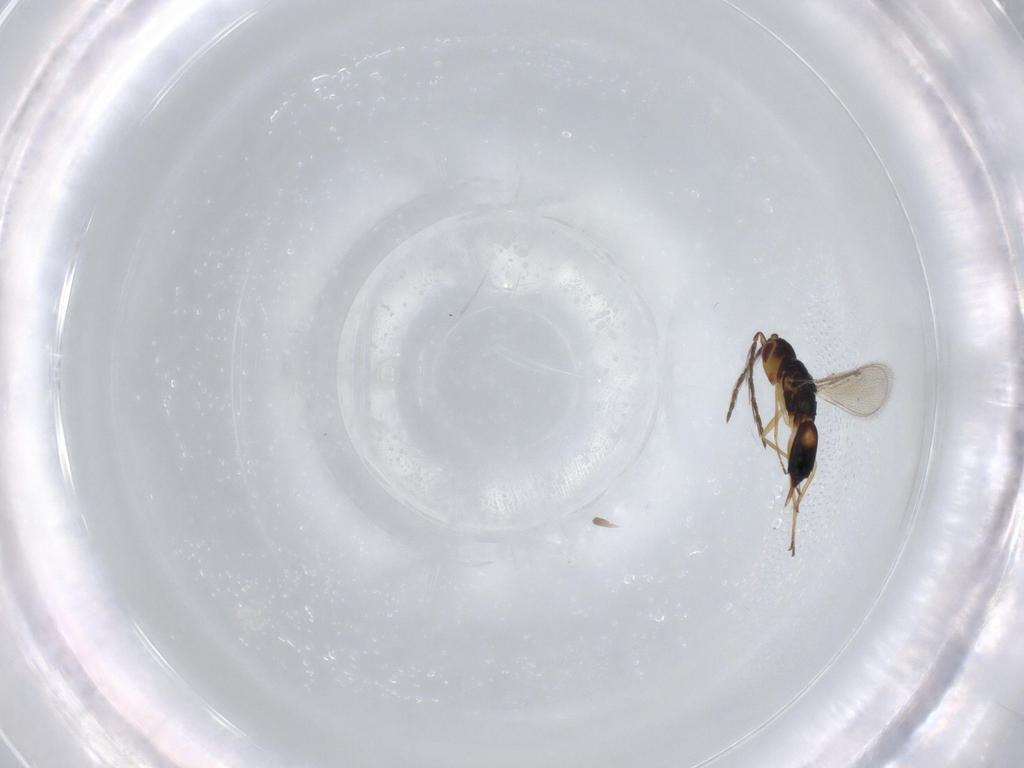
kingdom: Animalia
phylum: Arthropoda
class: Insecta
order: Hymenoptera
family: Eulophidae
